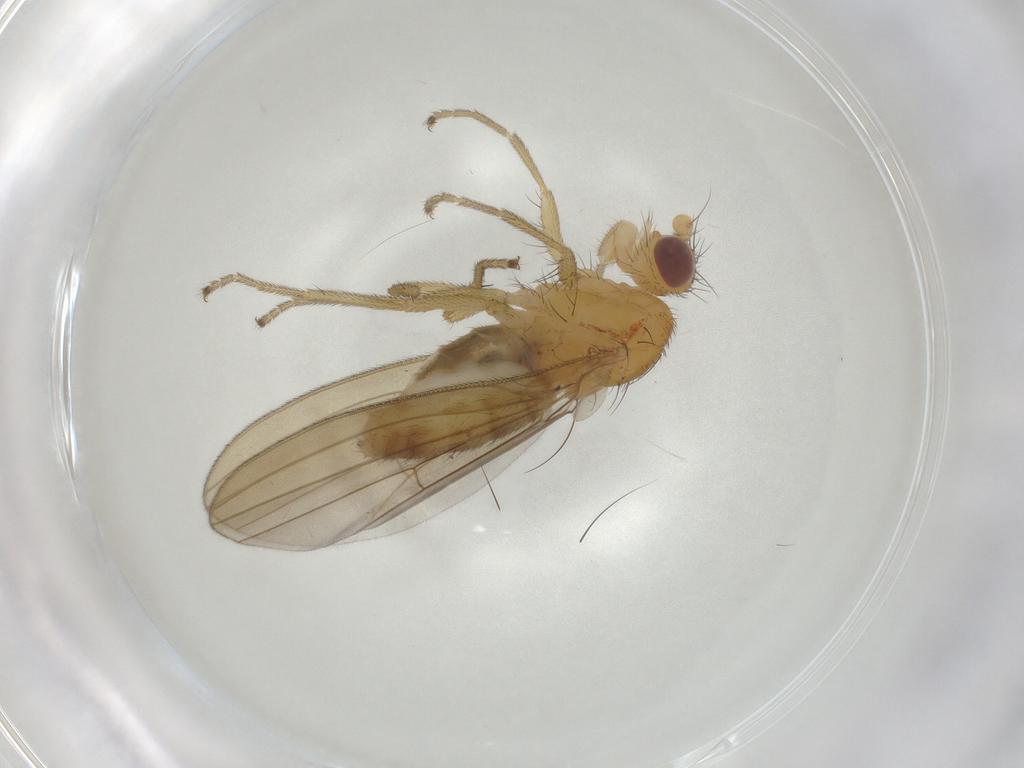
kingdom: Animalia
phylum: Arthropoda
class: Insecta
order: Diptera
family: Natalimyzidae
